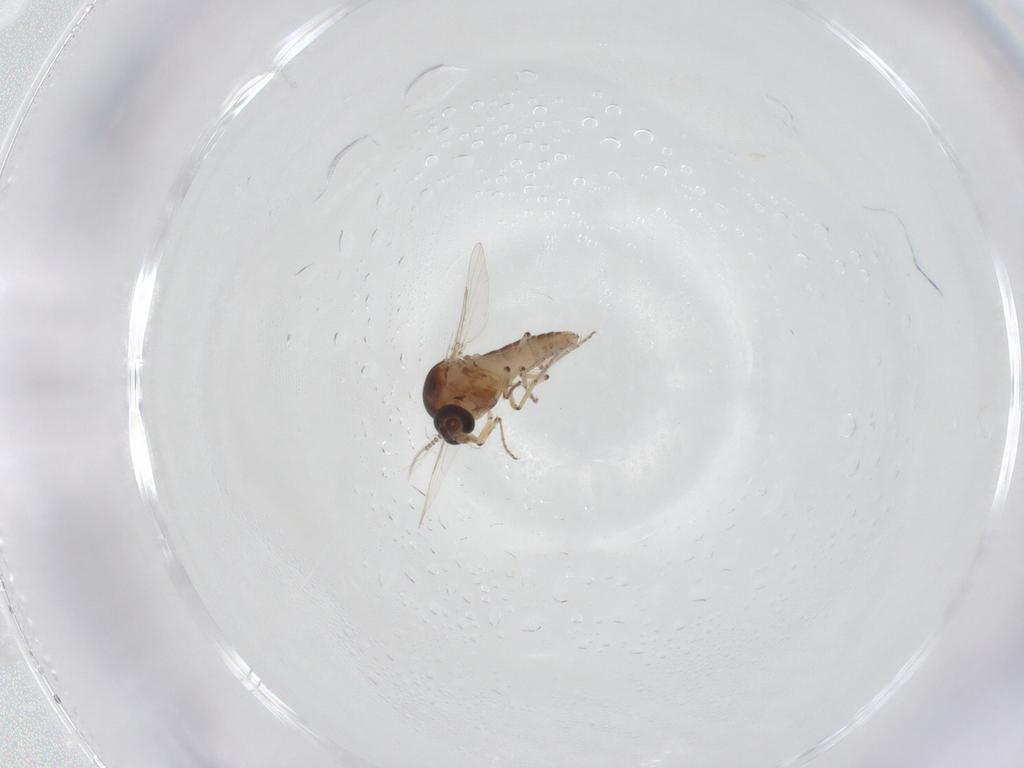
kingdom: Animalia
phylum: Arthropoda
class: Insecta
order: Diptera
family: Ceratopogonidae
